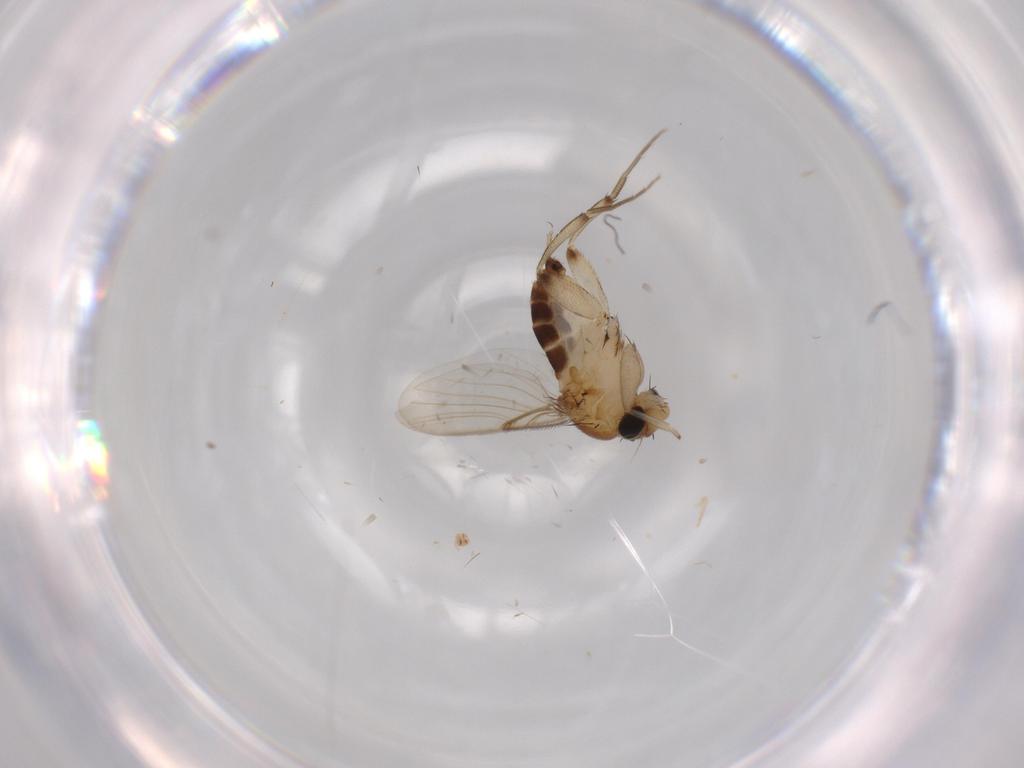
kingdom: Animalia
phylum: Arthropoda
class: Insecta
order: Diptera
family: Chironomidae
